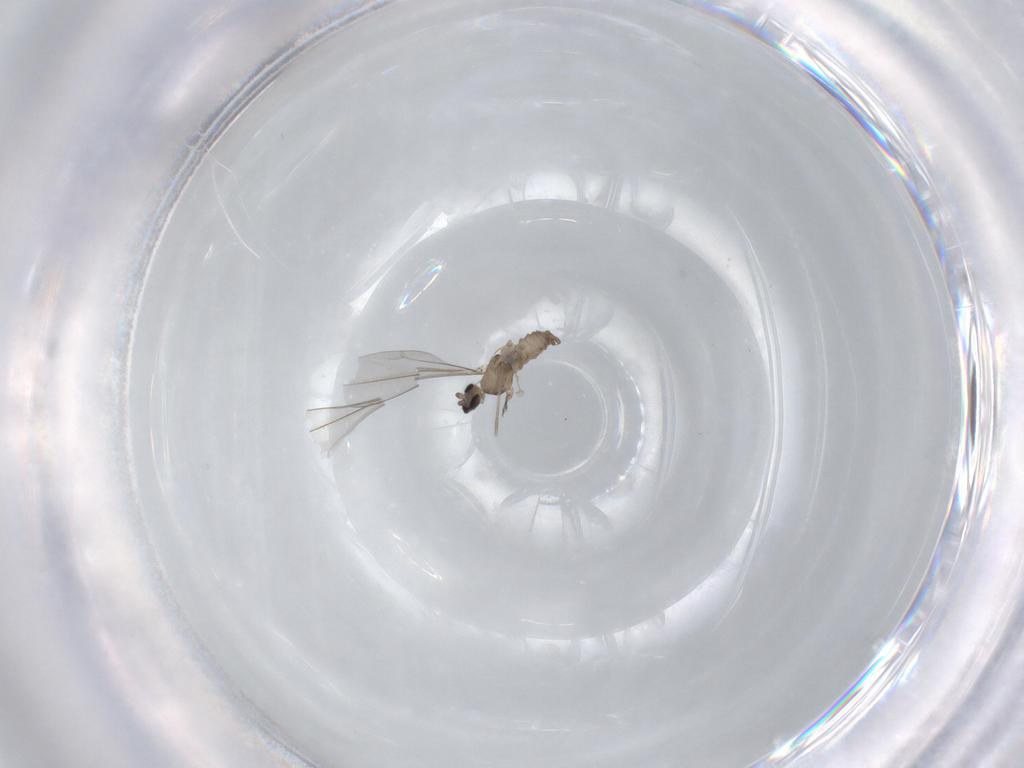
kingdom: Animalia
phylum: Arthropoda
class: Insecta
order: Diptera
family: Cecidomyiidae
